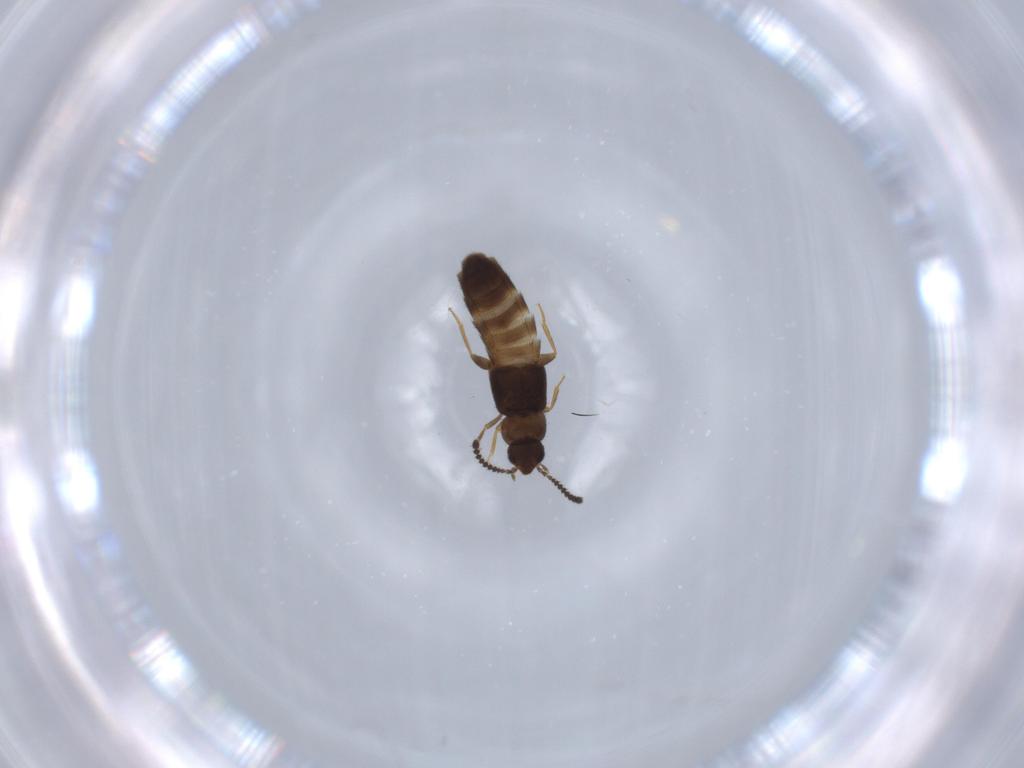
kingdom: Animalia
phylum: Arthropoda
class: Insecta
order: Coleoptera
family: Staphylinidae
